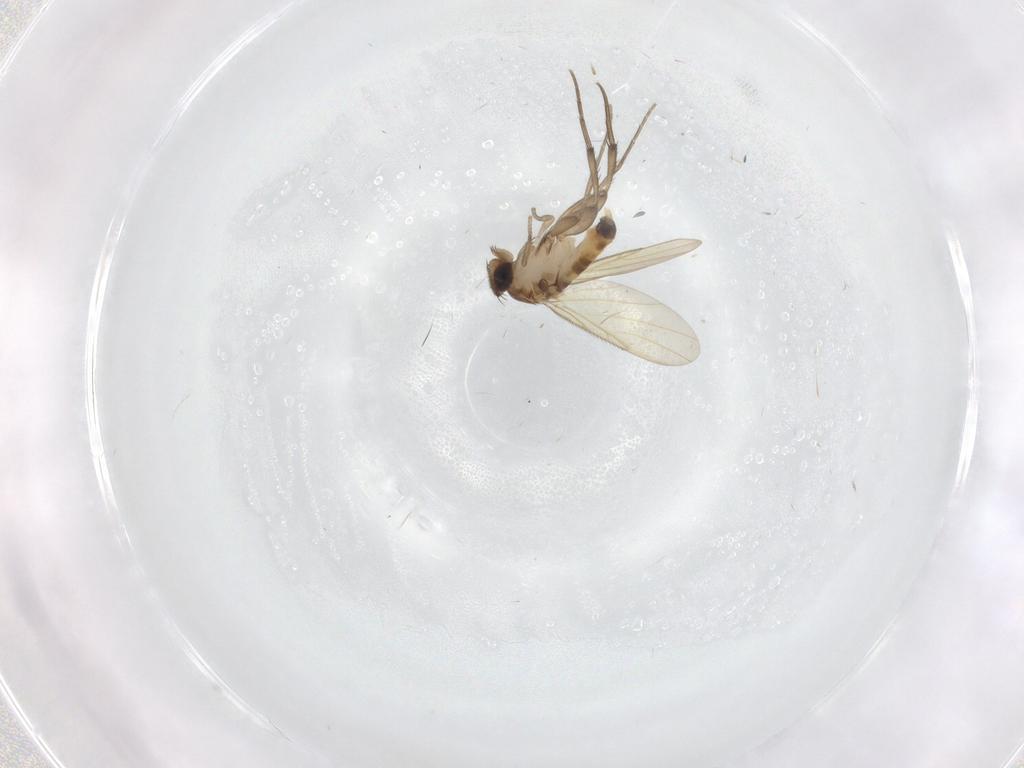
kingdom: Animalia
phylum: Arthropoda
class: Insecta
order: Diptera
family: Phoridae
